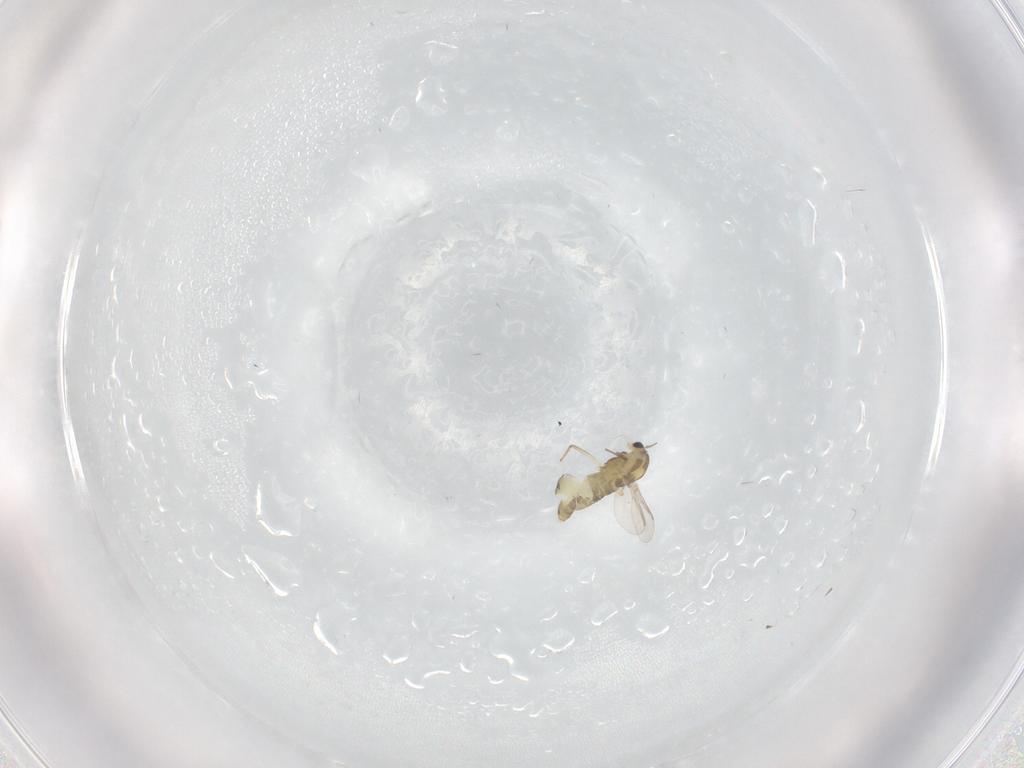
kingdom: Animalia
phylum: Arthropoda
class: Insecta
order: Diptera
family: Chironomidae
